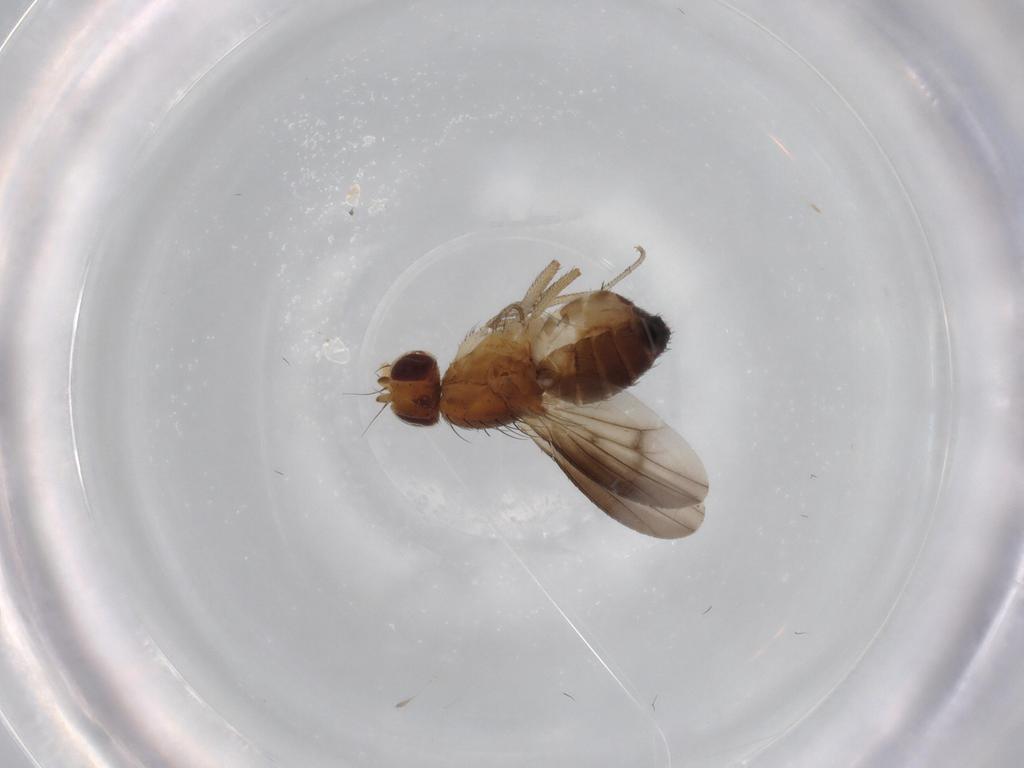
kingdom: Animalia
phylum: Arthropoda
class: Insecta
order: Diptera
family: Heleomyzidae
